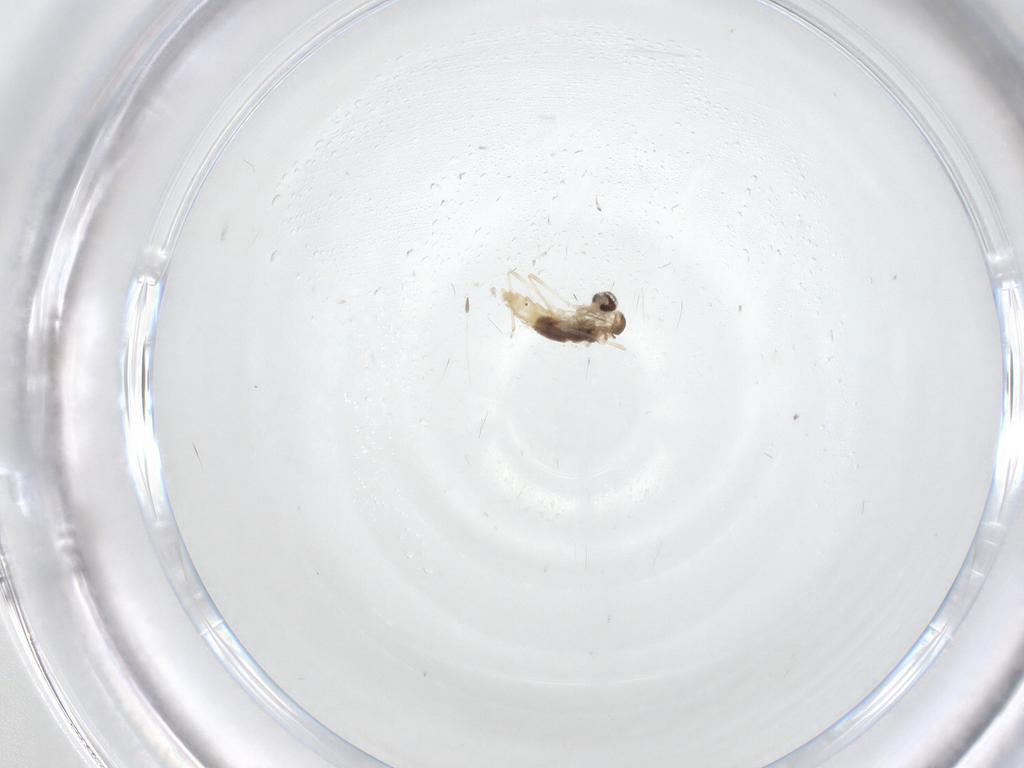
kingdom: Animalia
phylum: Arthropoda
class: Insecta
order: Diptera
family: Cecidomyiidae
